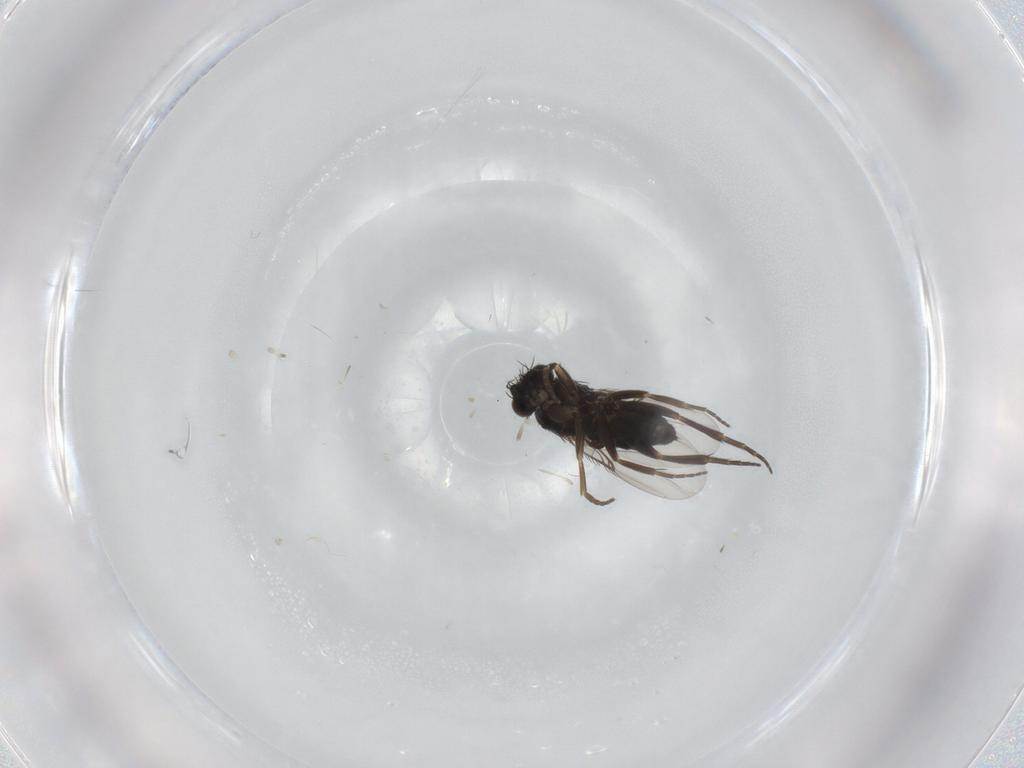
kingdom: Animalia
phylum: Arthropoda
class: Insecta
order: Diptera
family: Phoridae
